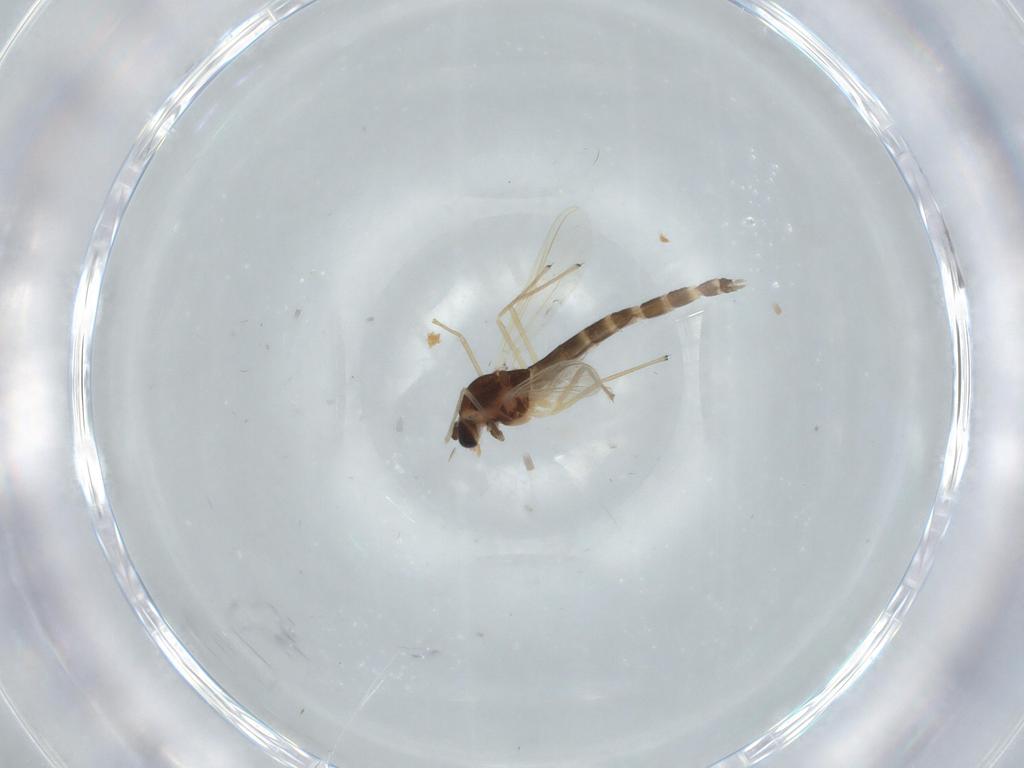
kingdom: Animalia
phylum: Arthropoda
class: Insecta
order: Diptera
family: Chironomidae
